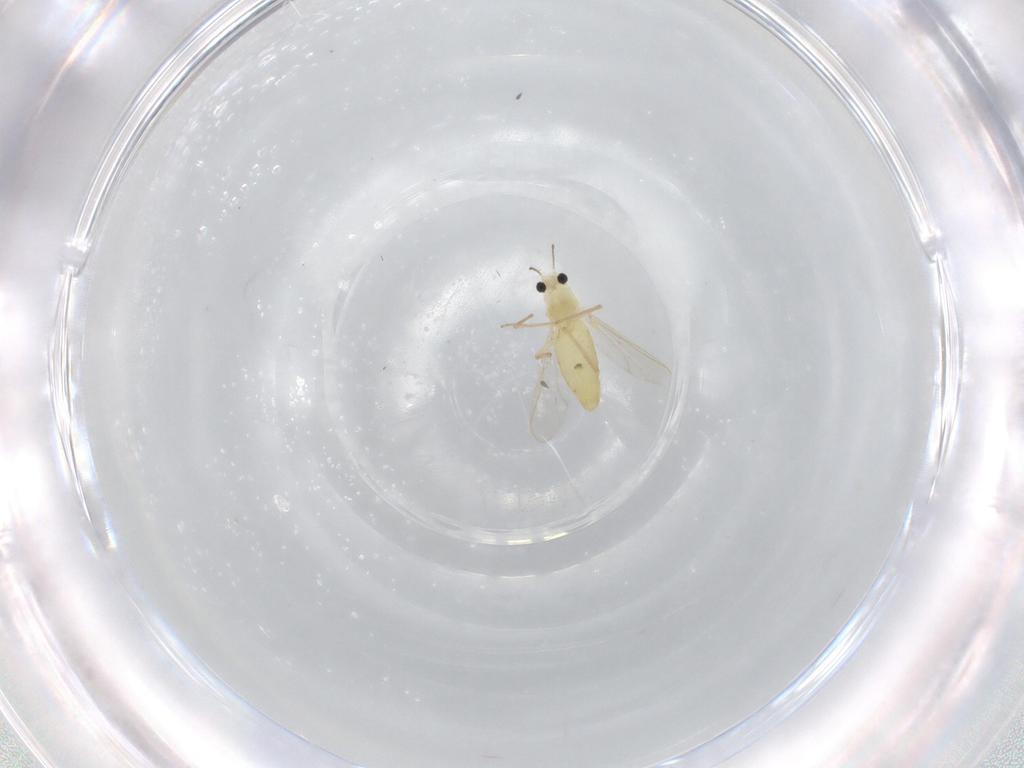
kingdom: Animalia
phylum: Arthropoda
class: Insecta
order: Diptera
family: Chironomidae
